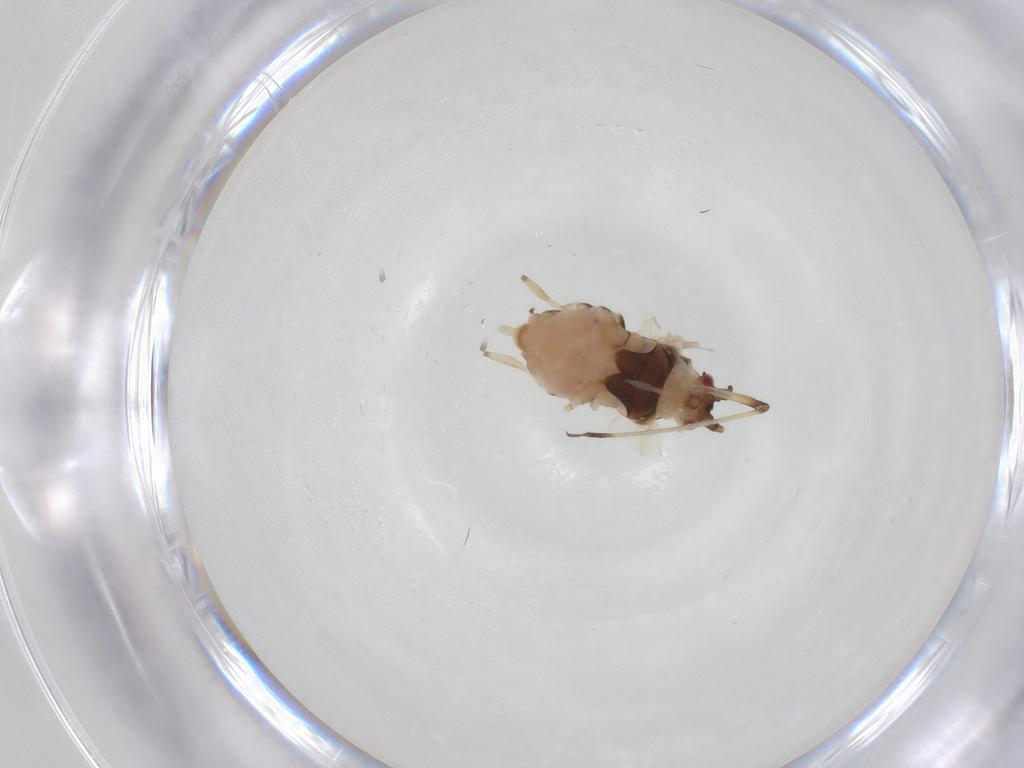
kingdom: Animalia
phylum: Arthropoda
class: Insecta
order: Hemiptera
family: Aphididae
